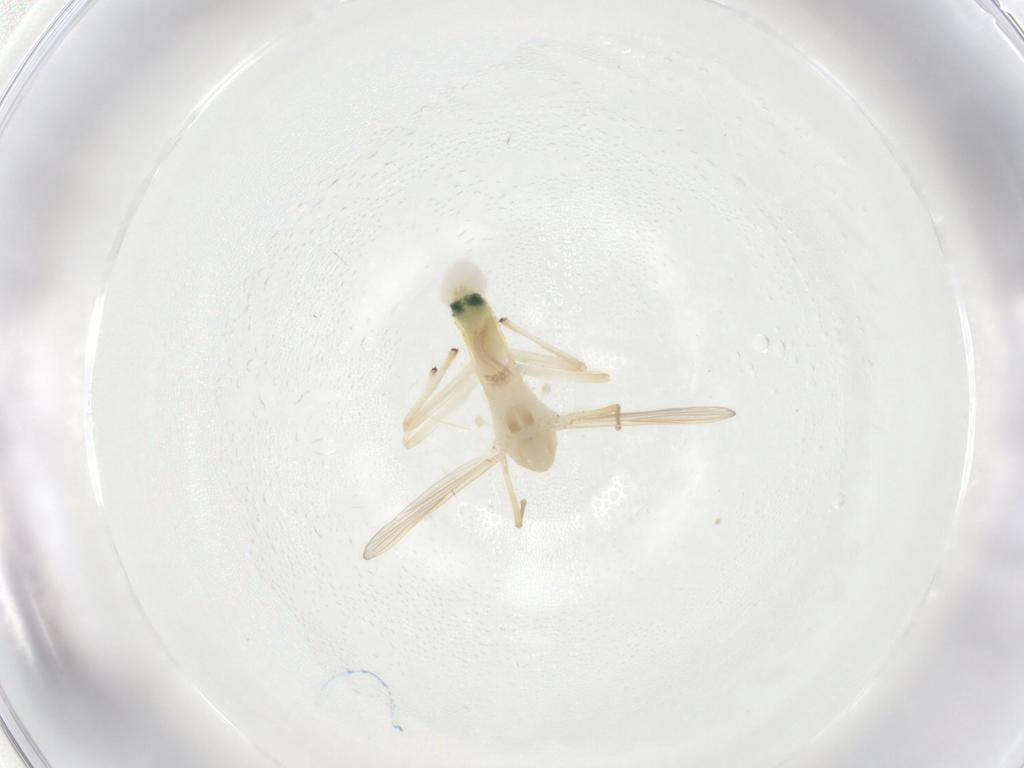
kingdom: Animalia
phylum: Arthropoda
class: Insecta
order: Diptera
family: Chironomidae
